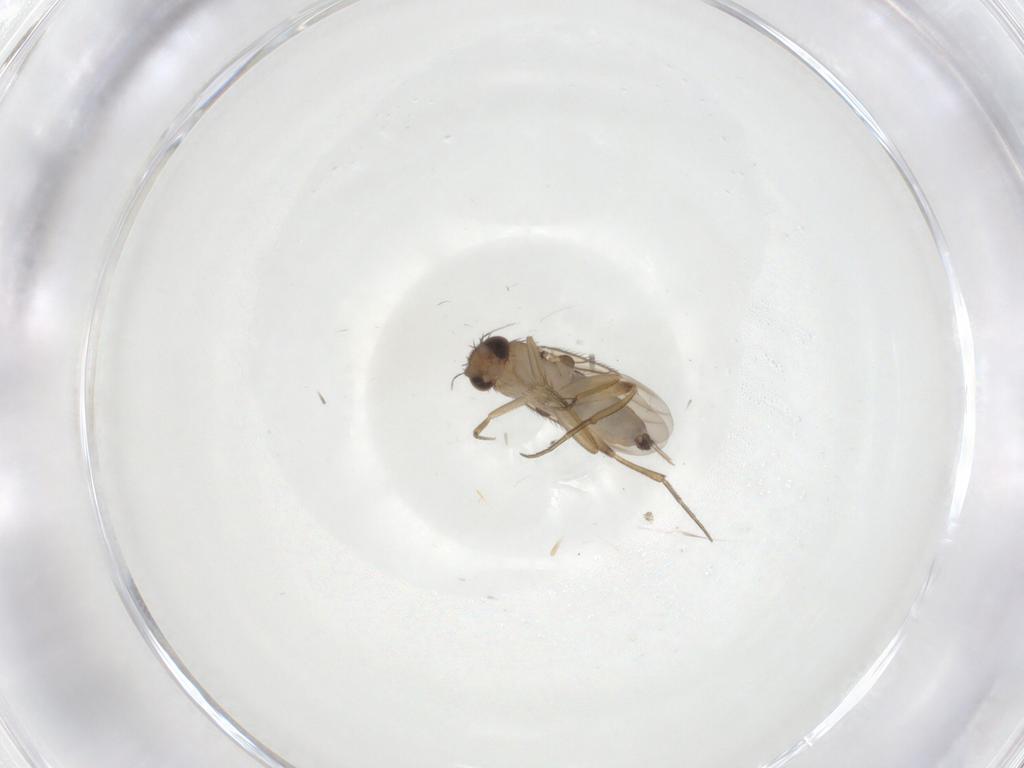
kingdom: Animalia
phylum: Arthropoda
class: Insecta
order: Diptera
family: Phoridae
